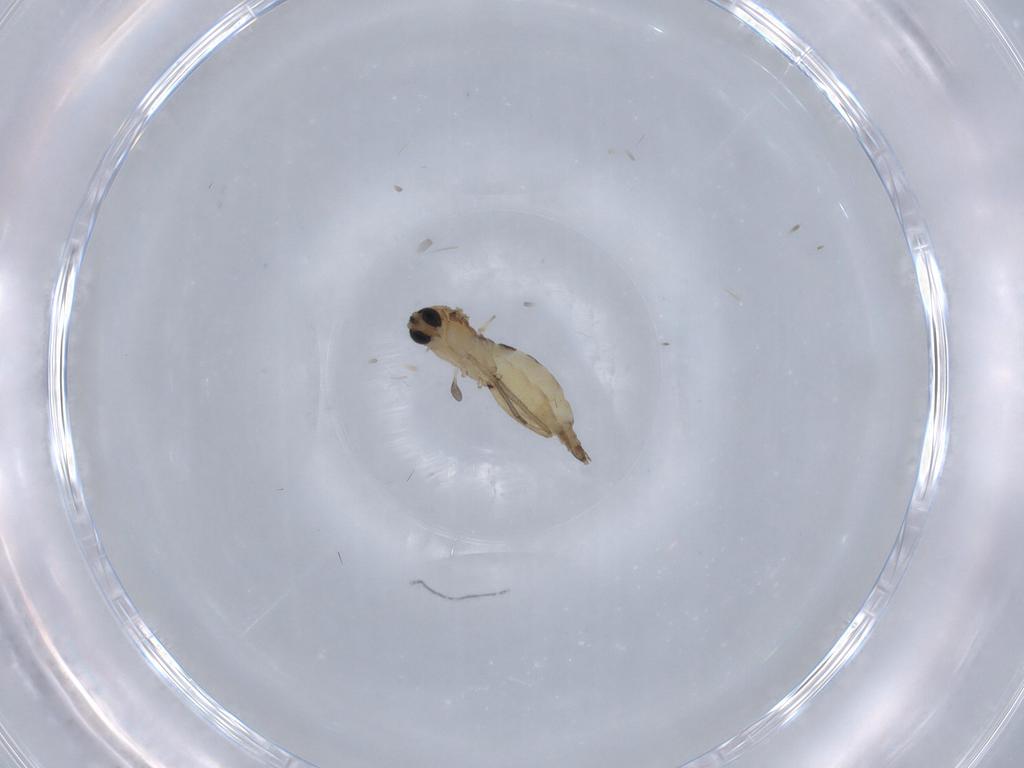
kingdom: Animalia
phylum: Arthropoda
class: Insecta
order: Diptera
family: Sciaridae
